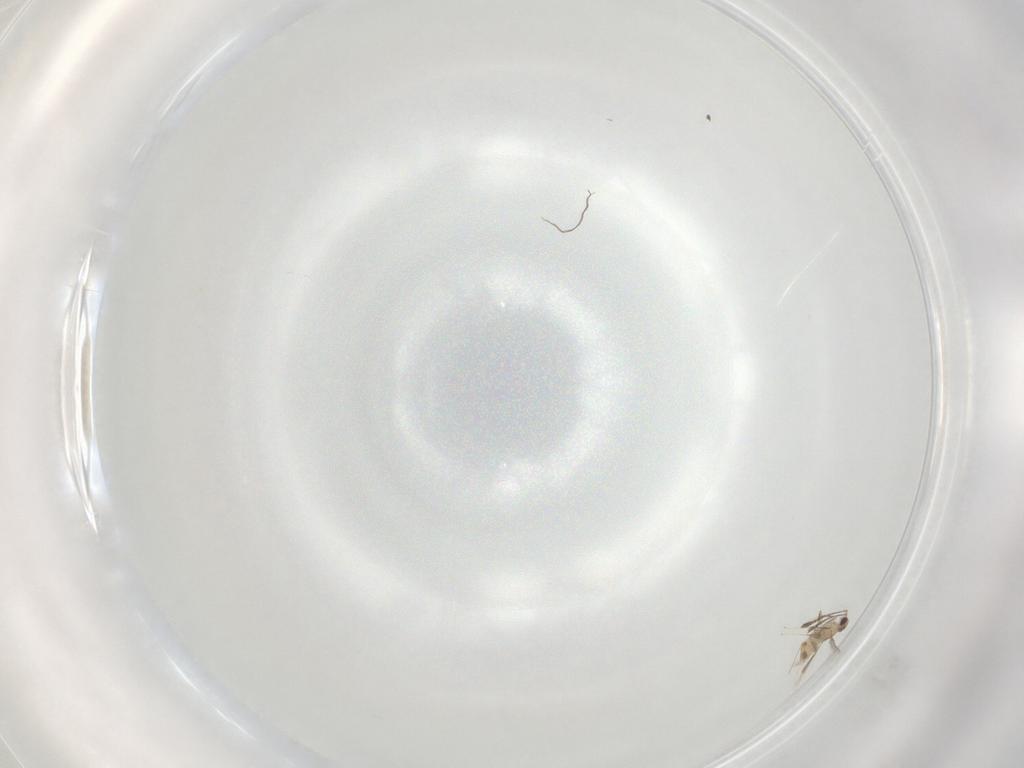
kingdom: Animalia
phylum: Arthropoda
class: Insecta
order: Hymenoptera
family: Mymaridae
